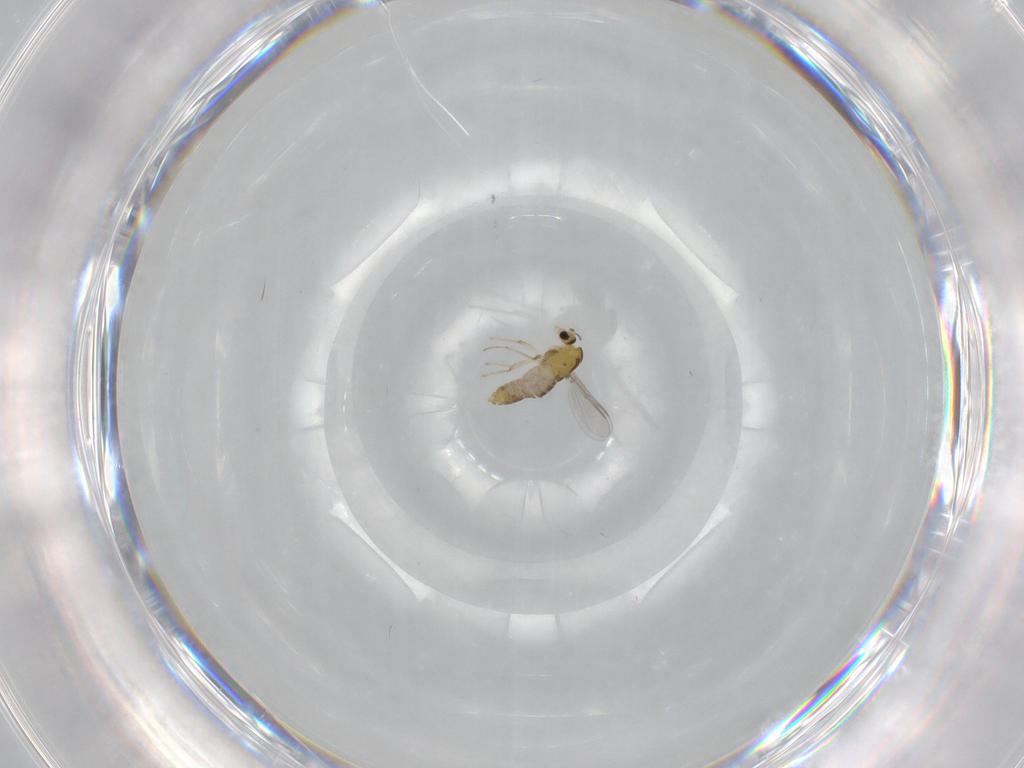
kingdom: Animalia
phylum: Arthropoda
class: Insecta
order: Diptera
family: Chironomidae
